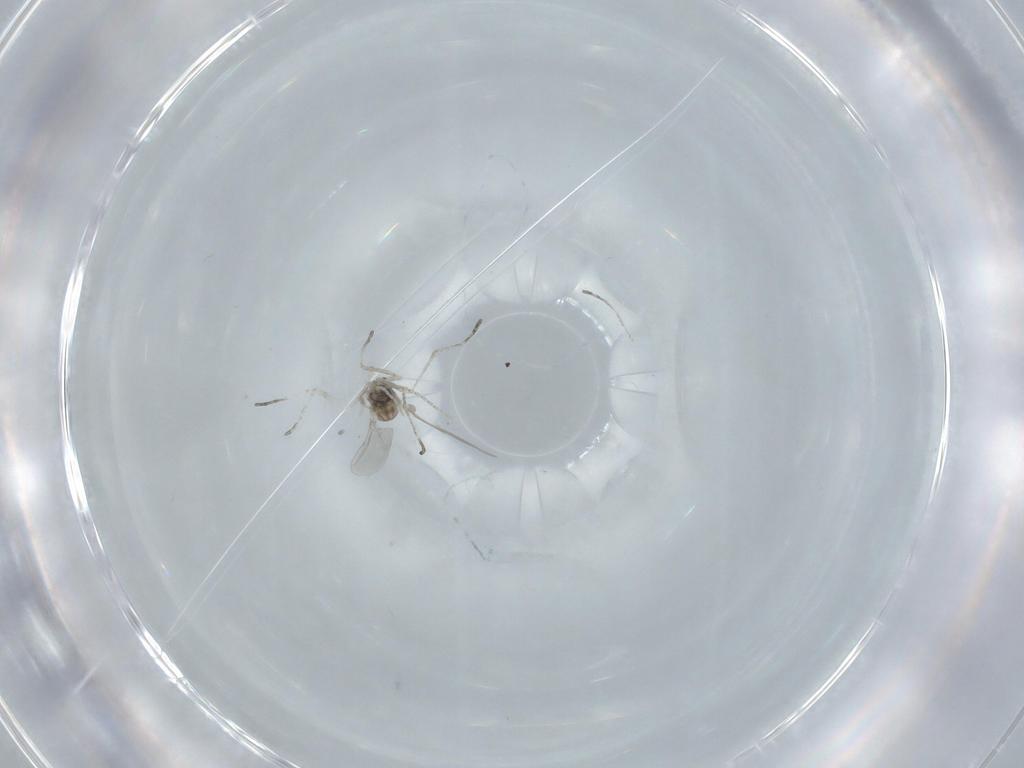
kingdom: Animalia
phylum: Arthropoda
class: Insecta
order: Diptera
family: Cecidomyiidae
